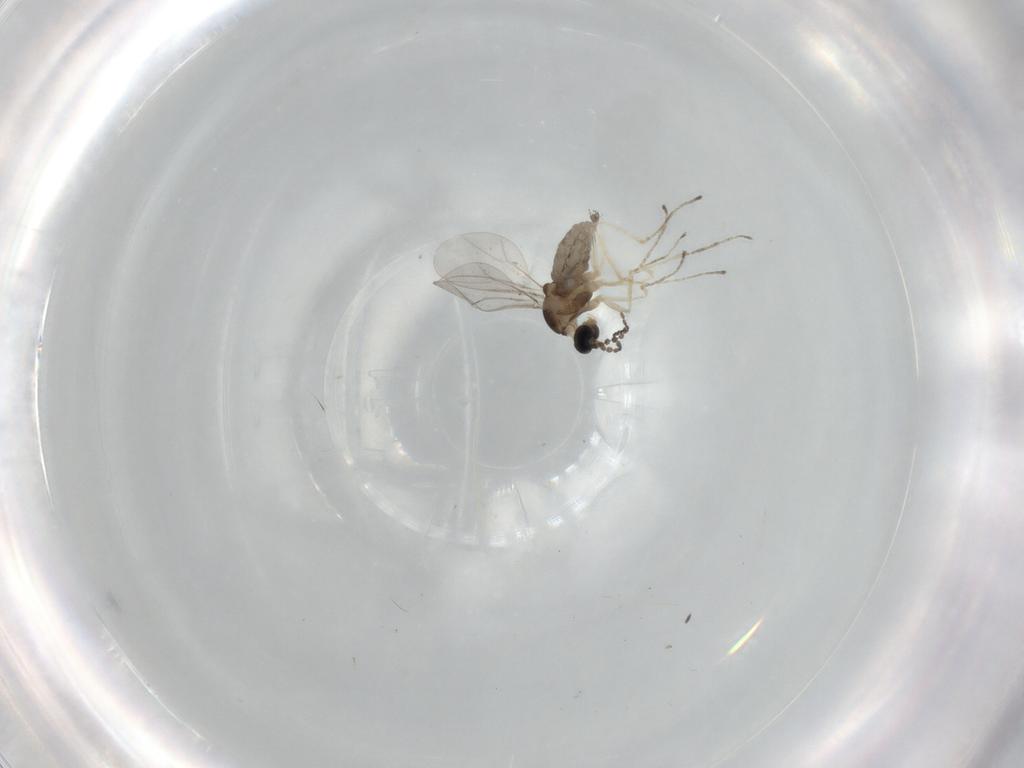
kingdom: Animalia
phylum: Arthropoda
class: Insecta
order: Diptera
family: Cecidomyiidae
